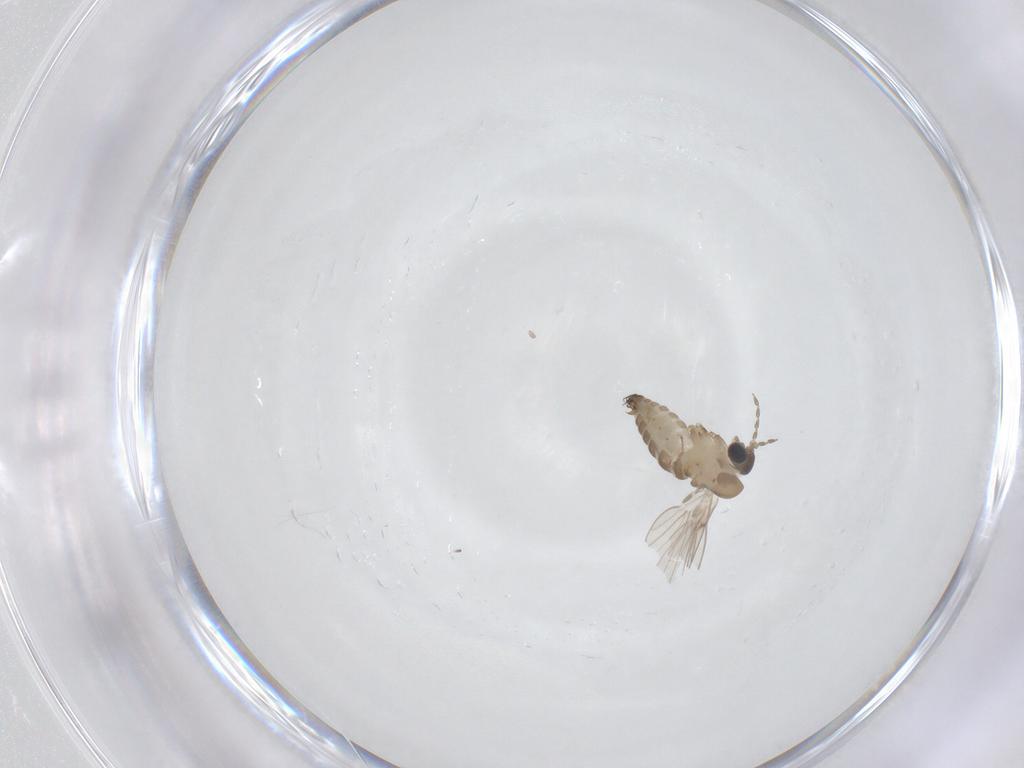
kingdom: Animalia
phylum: Arthropoda
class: Insecta
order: Diptera
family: Psychodidae
